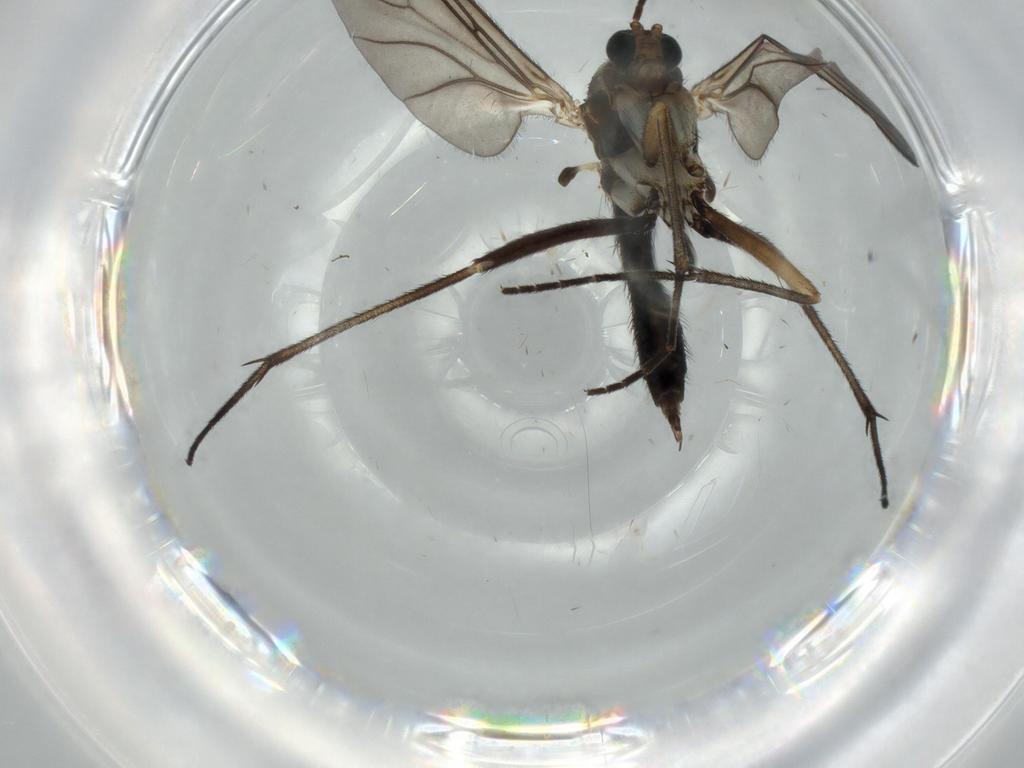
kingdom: Animalia
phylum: Arthropoda
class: Insecta
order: Diptera
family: Sciaridae
